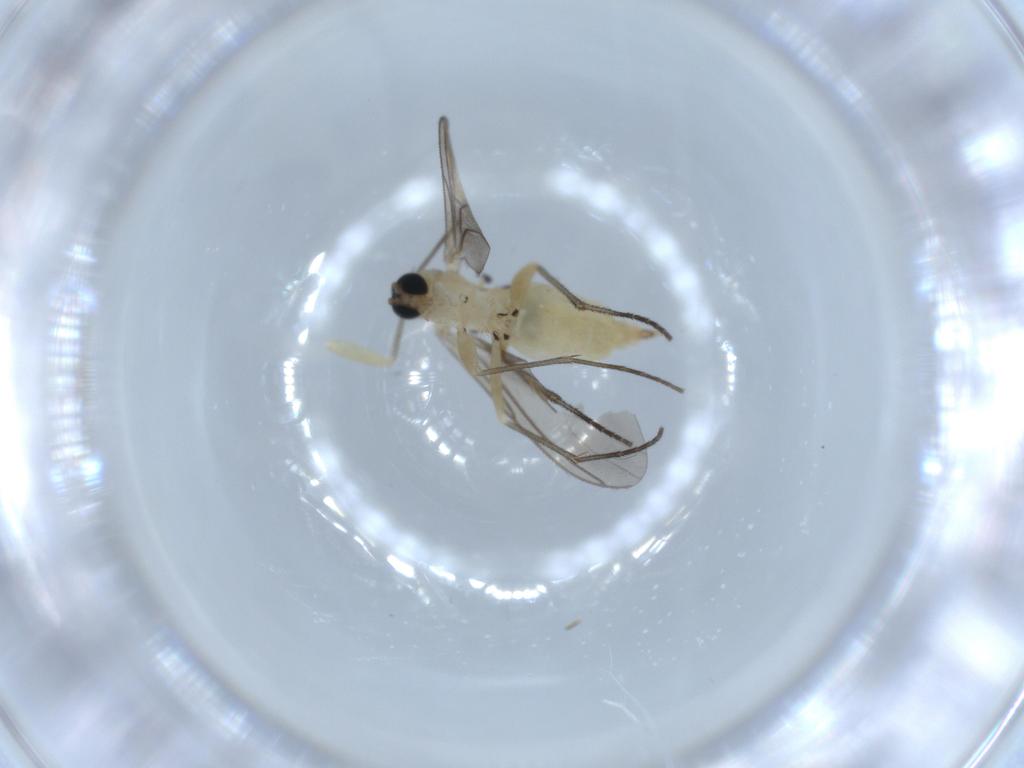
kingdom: Animalia
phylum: Arthropoda
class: Insecta
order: Diptera
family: Sciaridae
